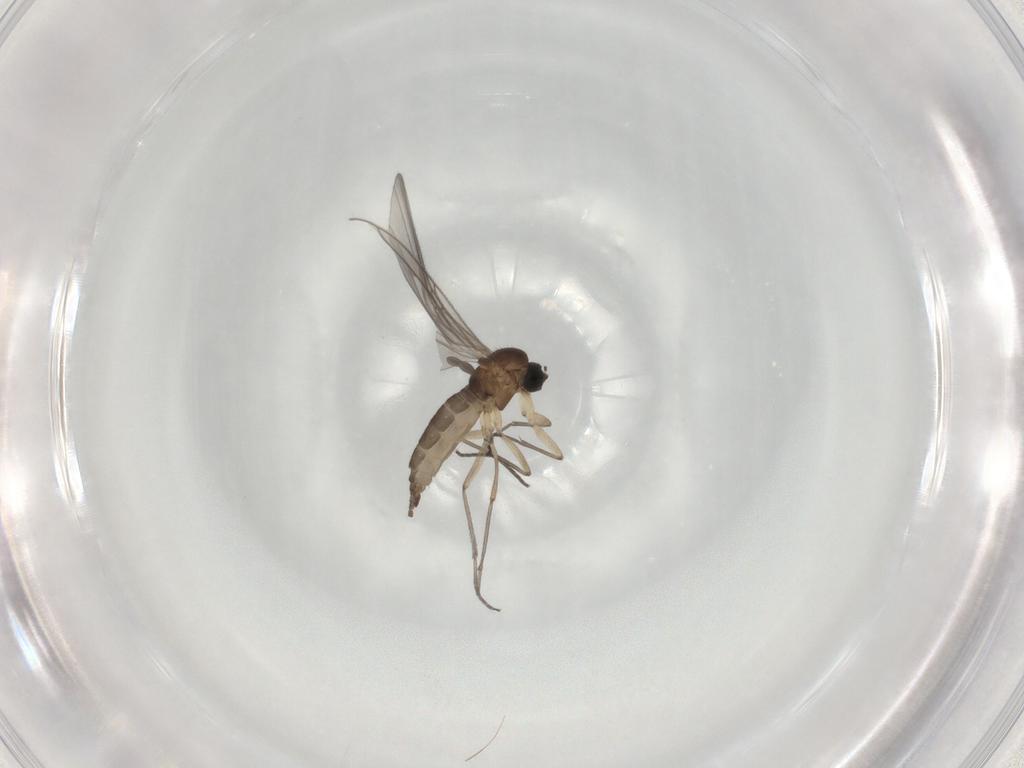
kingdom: Animalia
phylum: Arthropoda
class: Insecta
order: Diptera
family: Sciaridae
